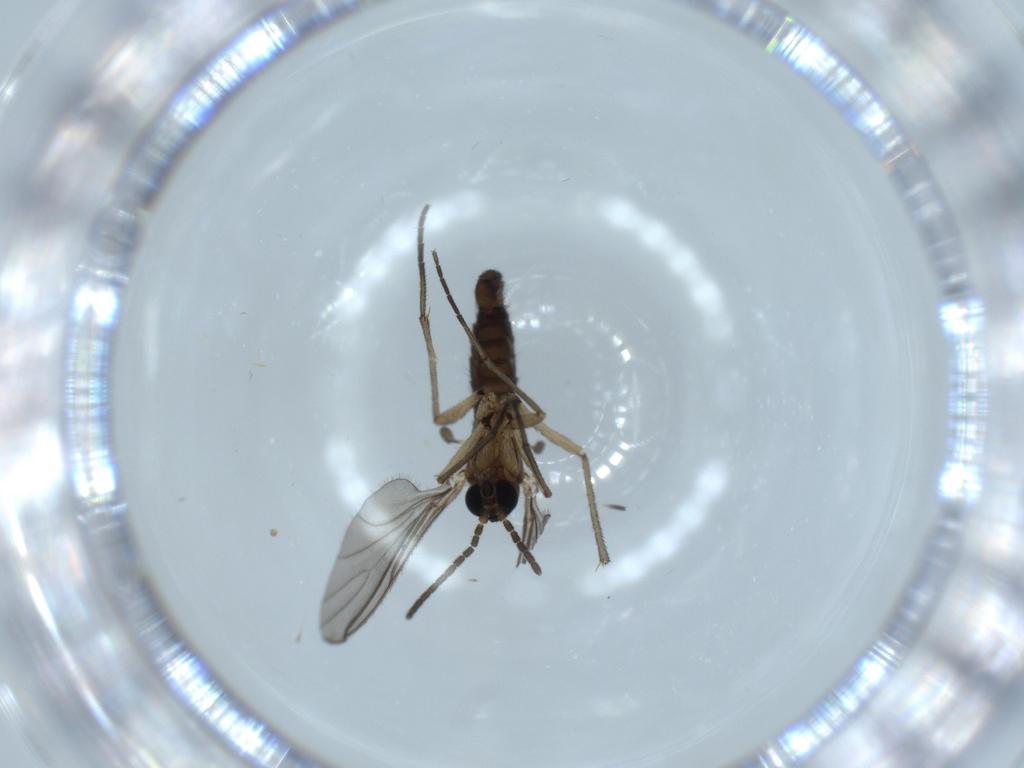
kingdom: Animalia
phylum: Arthropoda
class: Insecta
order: Diptera
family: Sciaridae
